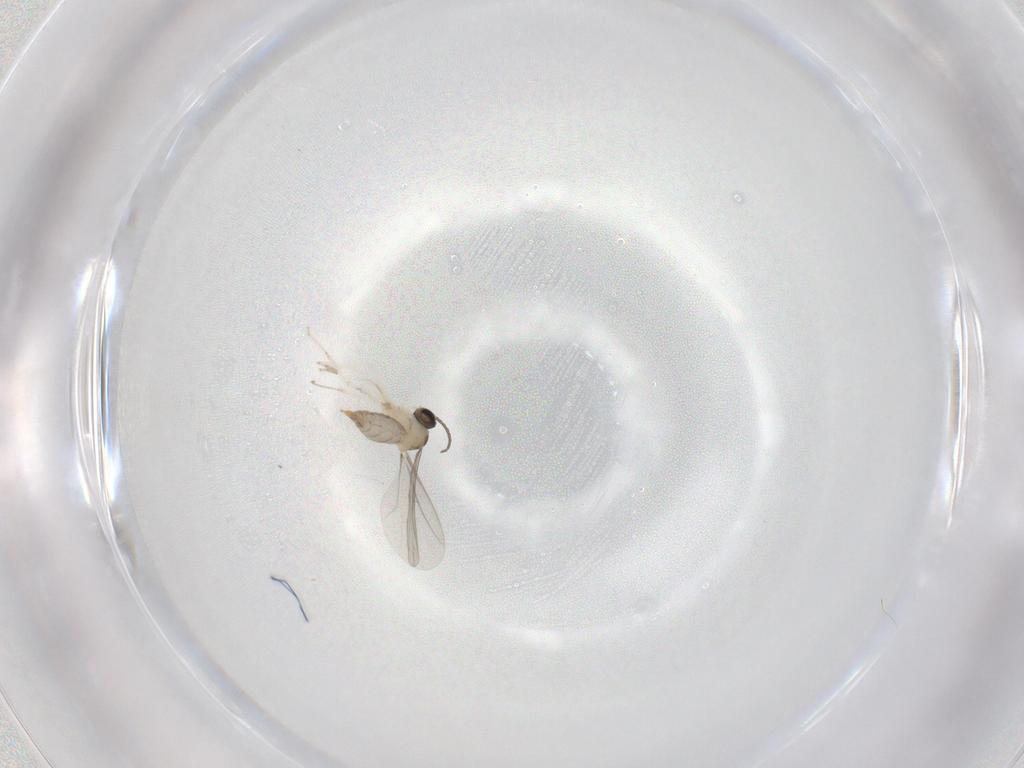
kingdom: Animalia
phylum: Arthropoda
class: Insecta
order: Diptera
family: Cecidomyiidae
